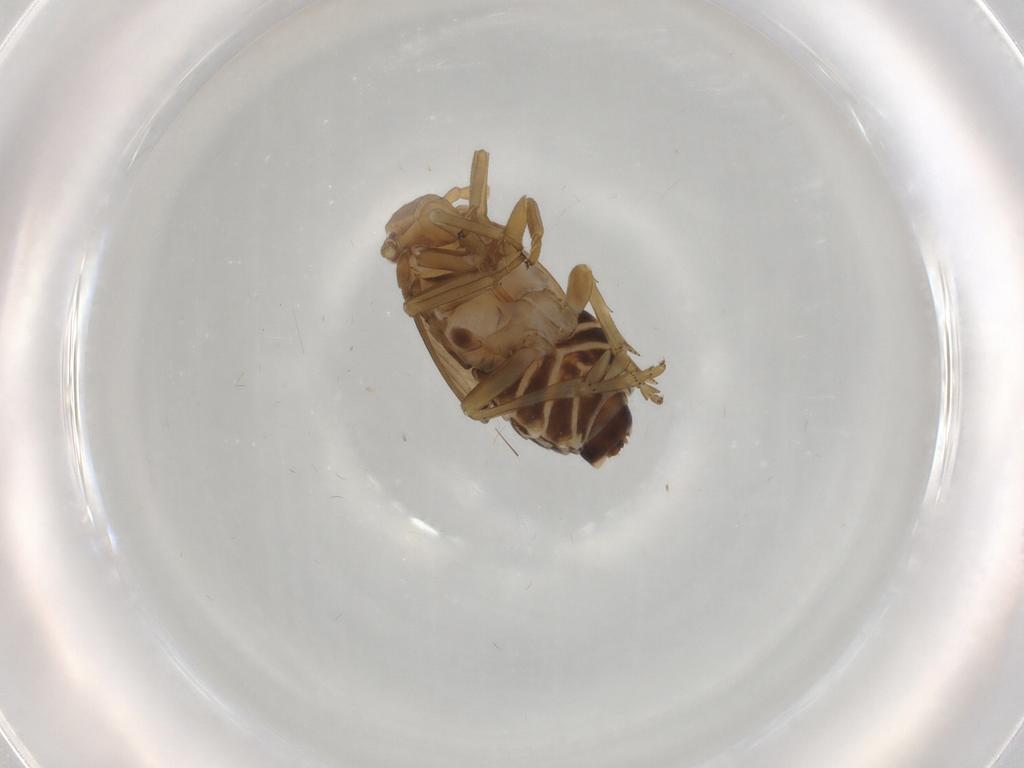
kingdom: Animalia
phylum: Arthropoda
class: Insecta
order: Hemiptera
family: Delphacidae
